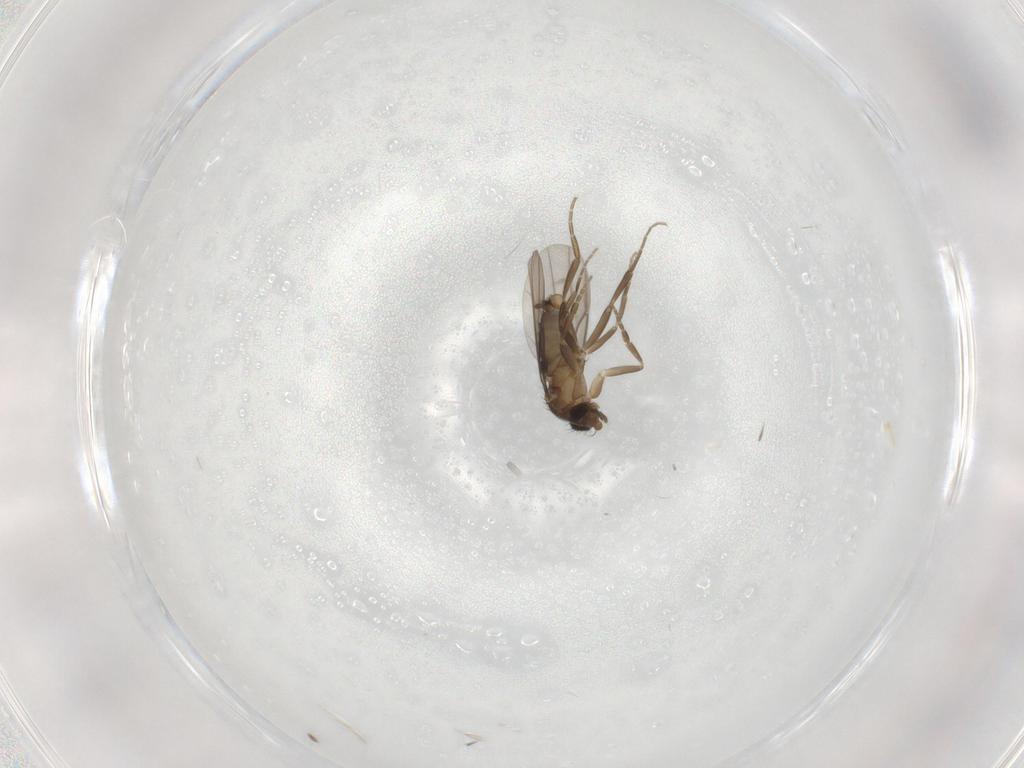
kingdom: Animalia
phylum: Arthropoda
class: Insecta
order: Diptera
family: Phoridae
